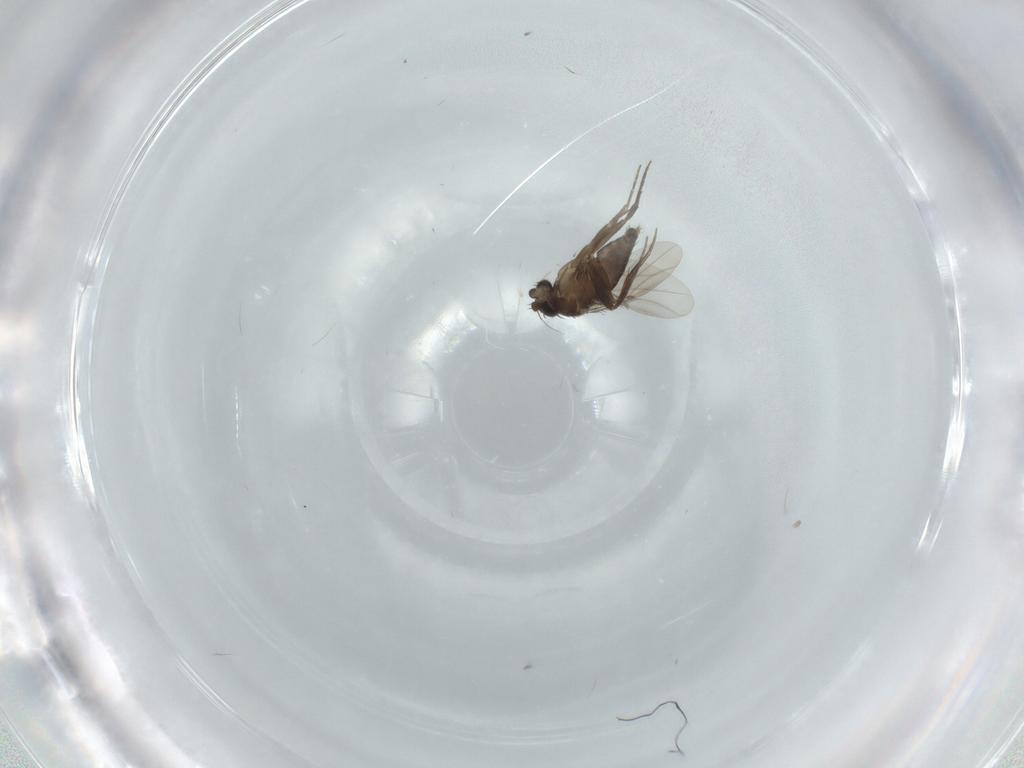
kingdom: Animalia
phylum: Arthropoda
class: Insecta
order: Diptera
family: Phoridae
